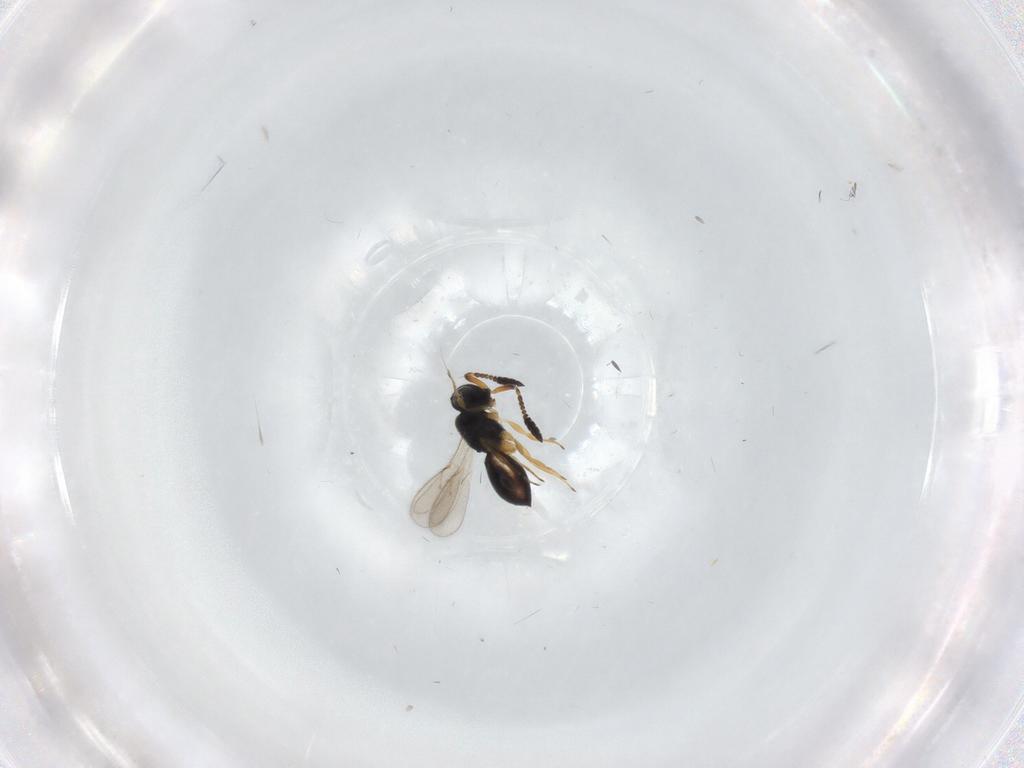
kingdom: Animalia
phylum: Arthropoda
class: Insecta
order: Hymenoptera
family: Scelionidae
